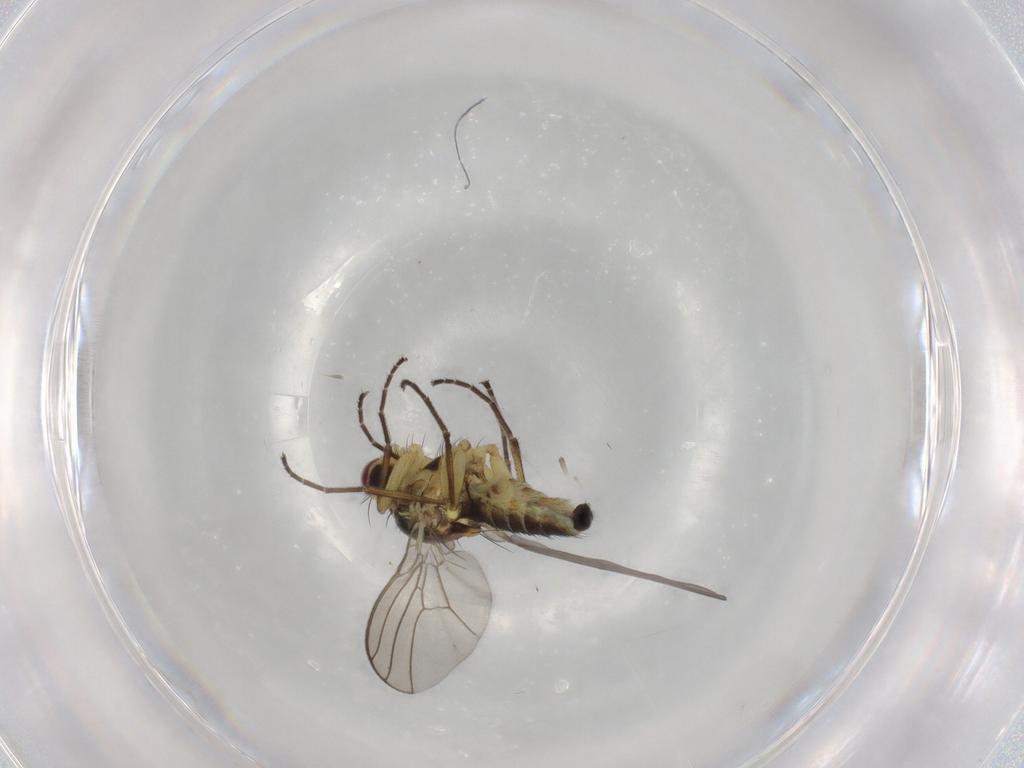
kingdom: Animalia
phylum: Arthropoda
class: Insecta
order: Diptera
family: Agromyzidae
